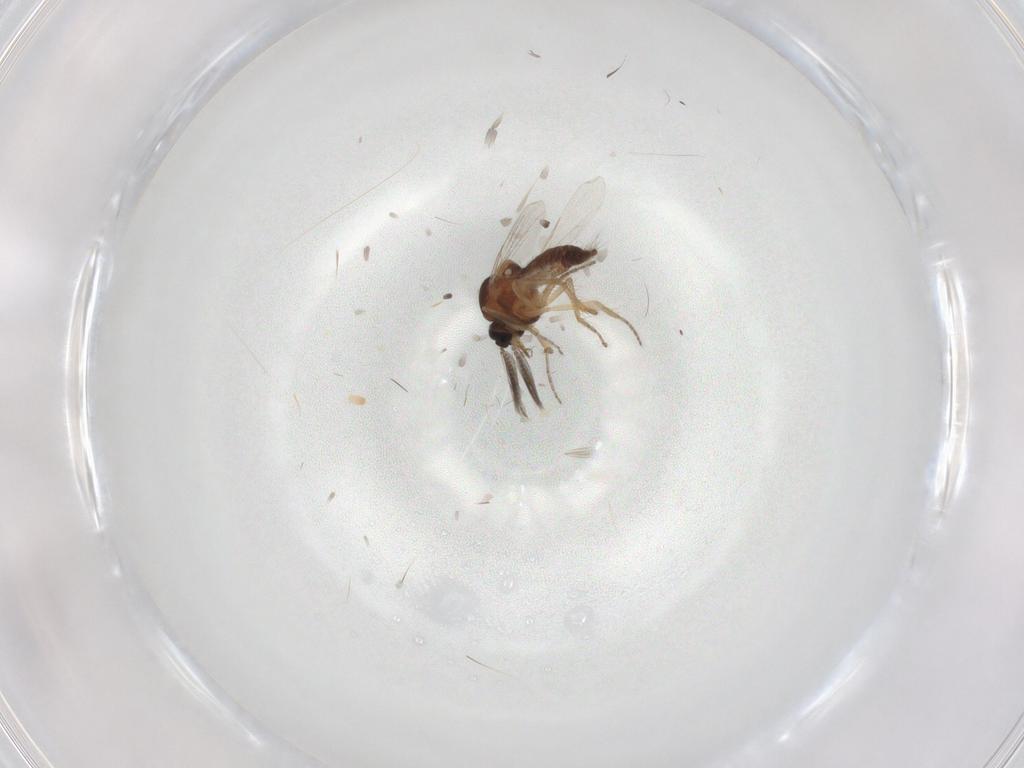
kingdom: Animalia
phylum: Arthropoda
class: Insecta
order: Diptera
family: Ceratopogonidae
